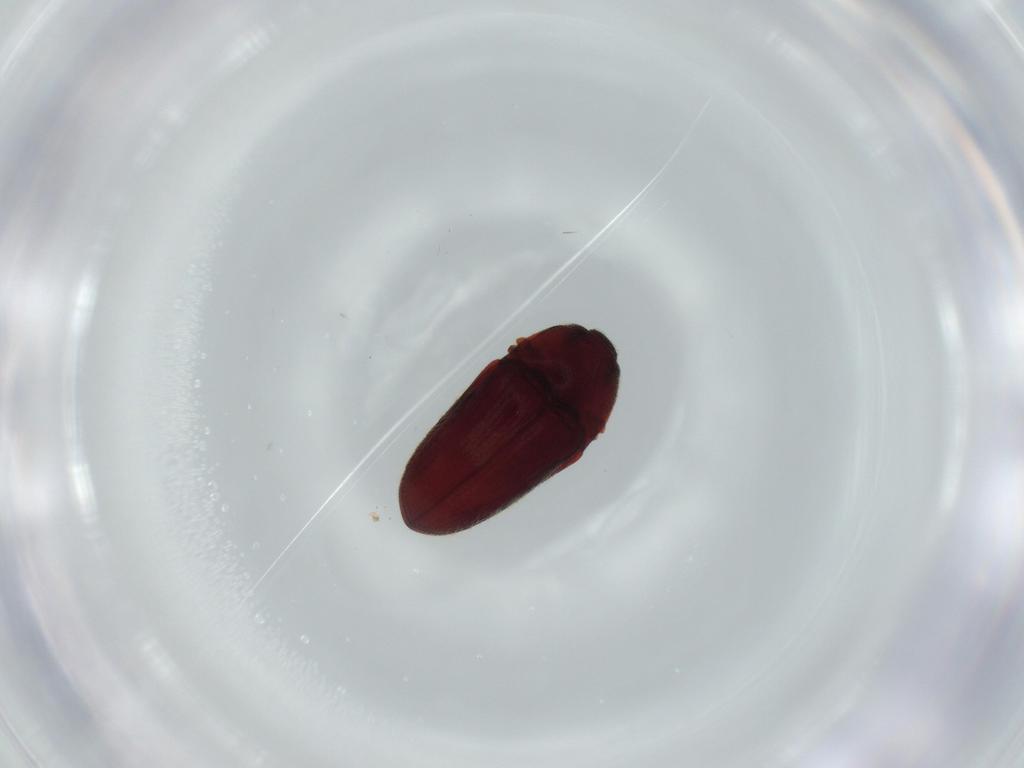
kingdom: Animalia
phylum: Arthropoda
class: Insecta
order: Coleoptera
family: Throscidae
